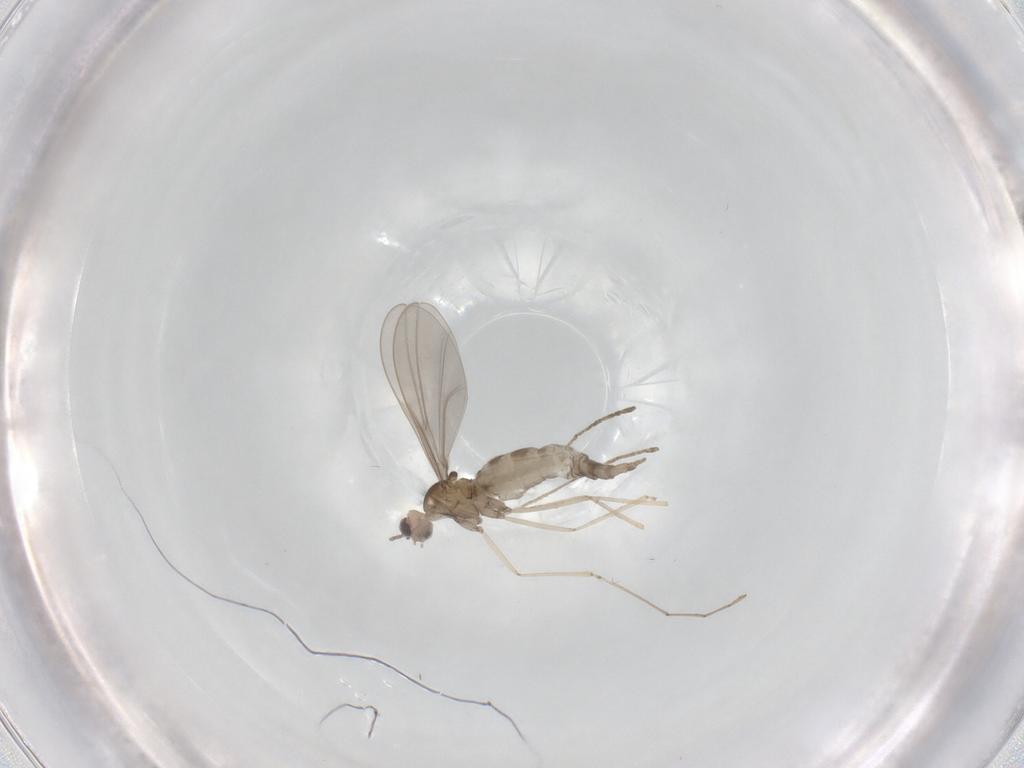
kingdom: Animalia
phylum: Arthropoda
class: Insecta
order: Diptera
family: Cecidomyiidae
